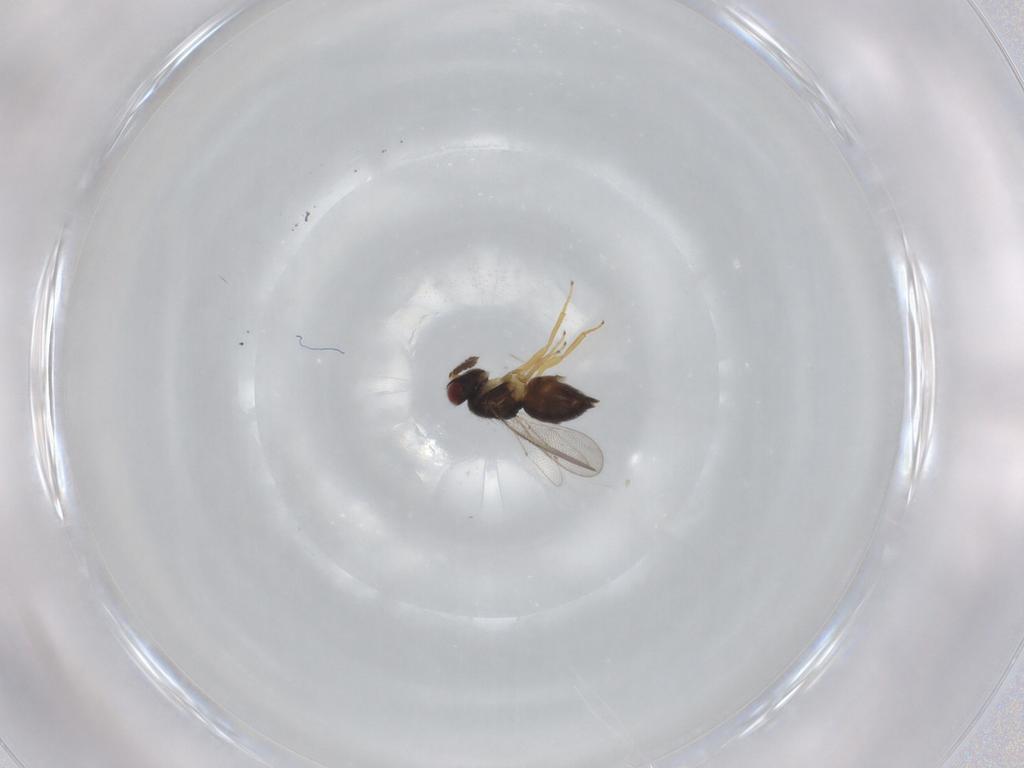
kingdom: Animalia
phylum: Arthropoda
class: Insecta
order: Hymenoptera
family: Eulophidae
